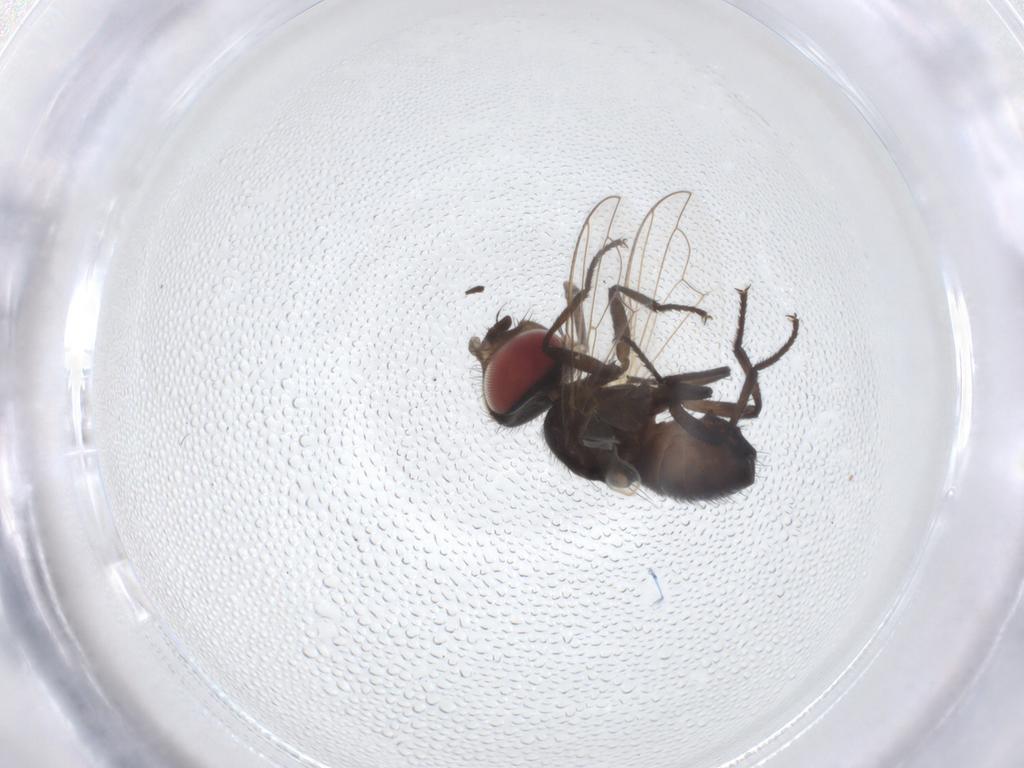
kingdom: Animalia
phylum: Arthropoda
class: Insecta
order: Diptera
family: Tachinidae
